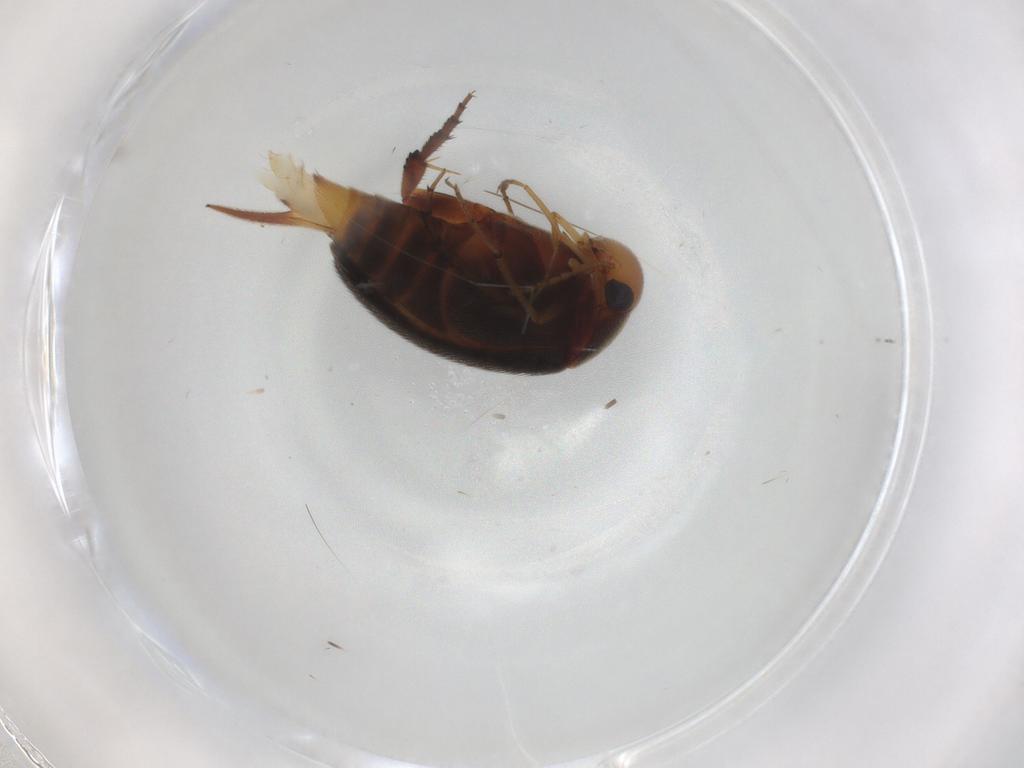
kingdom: Animalia
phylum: Arthropoda
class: Insecta
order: Coleoptera
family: Mordellidae
